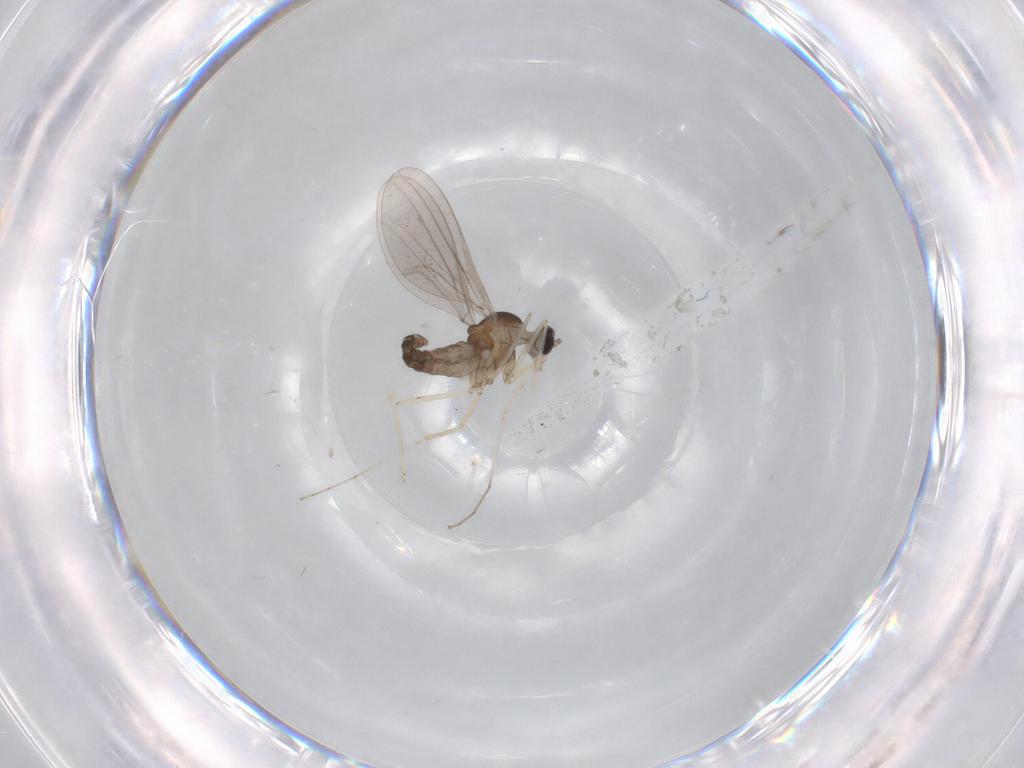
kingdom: Animalia
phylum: Arthropoda
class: Insecta
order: Diptera
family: Cecidomyiidae
